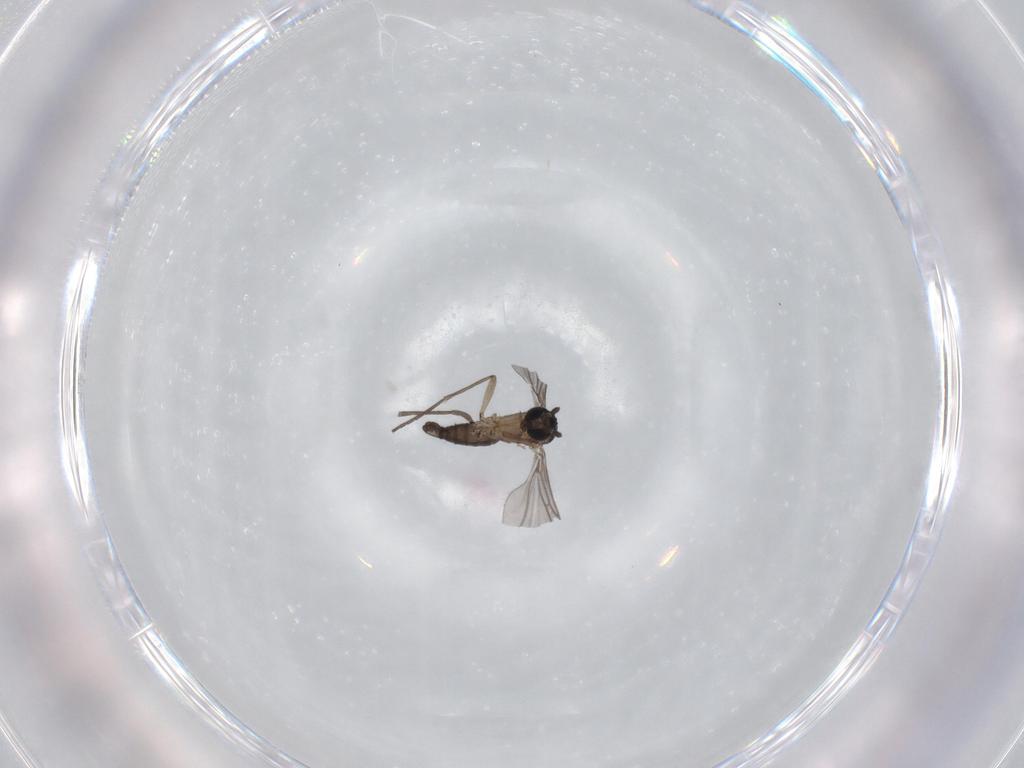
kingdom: Animalia
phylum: Arthropoda
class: Insecta
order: Diptera
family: Sciaridae
